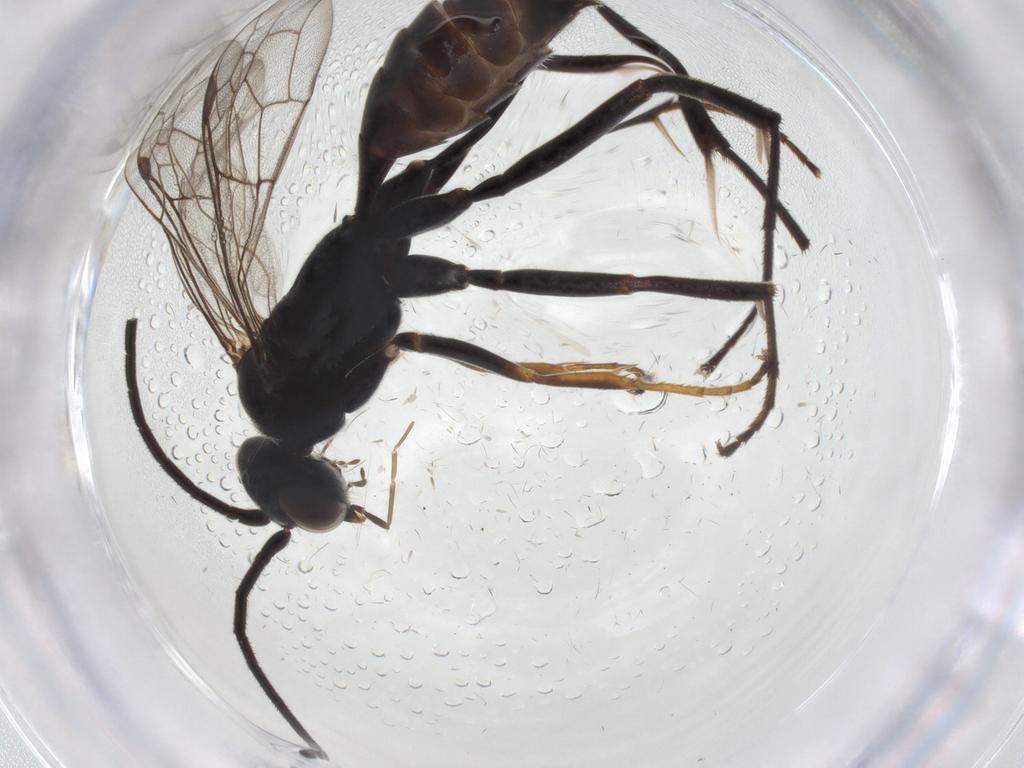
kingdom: Animalia
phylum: Arthropoda
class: Insecta
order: Hymenoptera
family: Pompilidae
